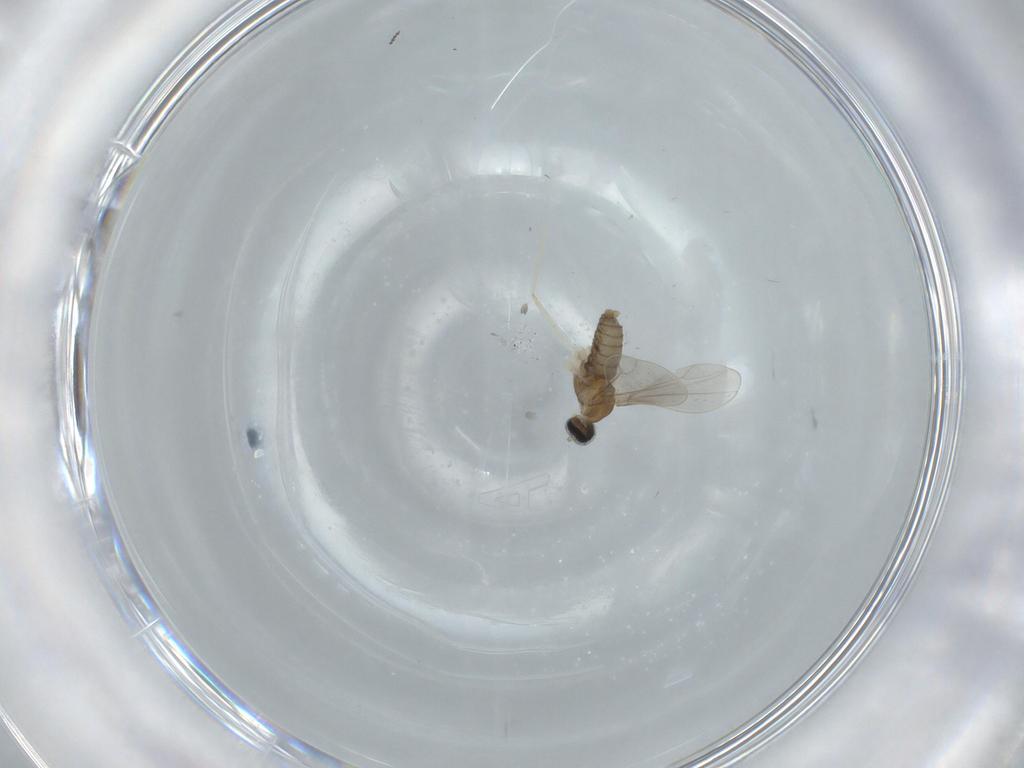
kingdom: Animalia
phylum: Arthropoda
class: Insecta
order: Diptera
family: Cecidomyiidae
